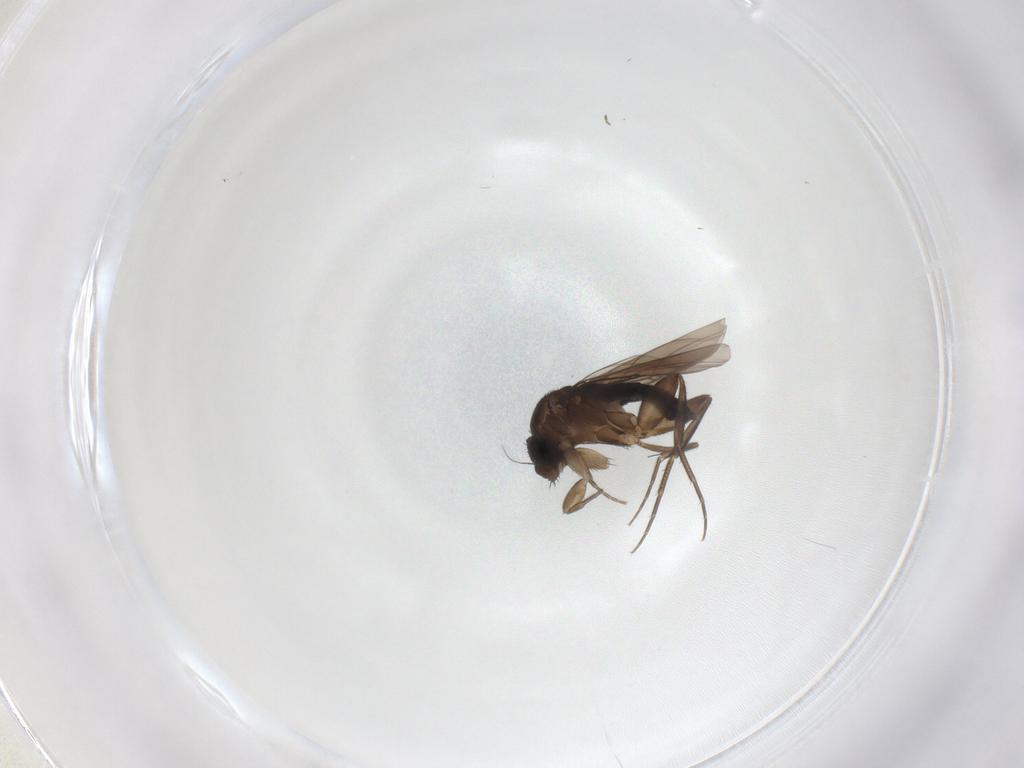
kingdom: Animalia
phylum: Arthropoda
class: Insecta
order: Diptera
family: Phoridae
